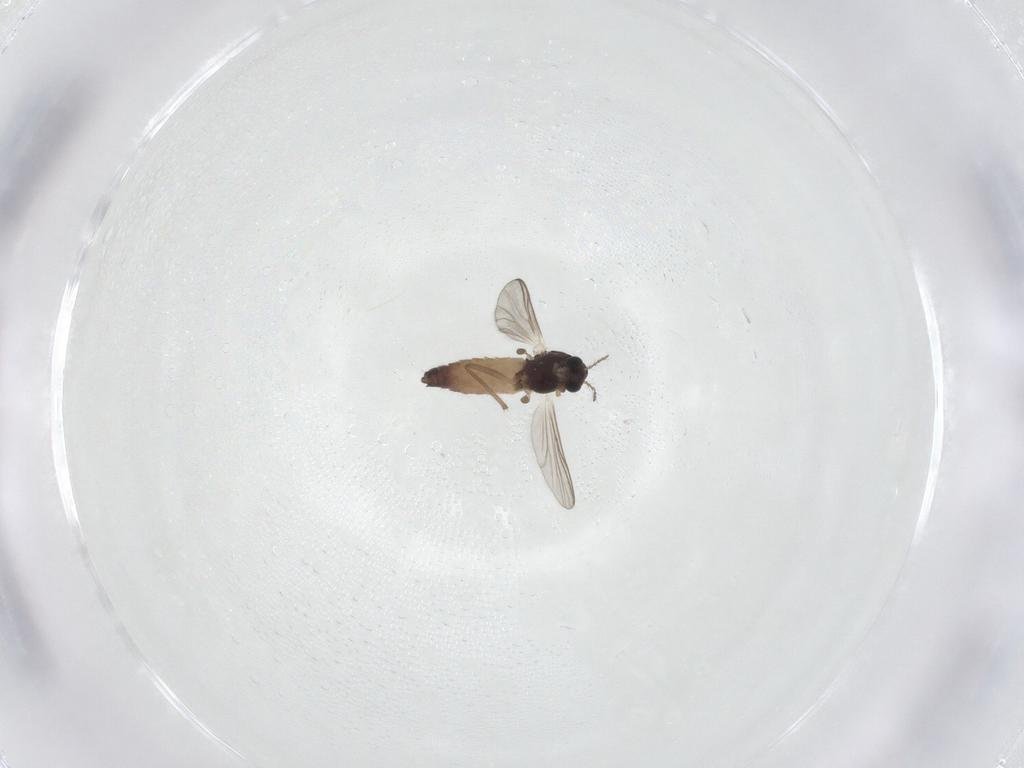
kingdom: Animalia
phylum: Arthropoda
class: Insecta
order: Diptera
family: Chironomidae
